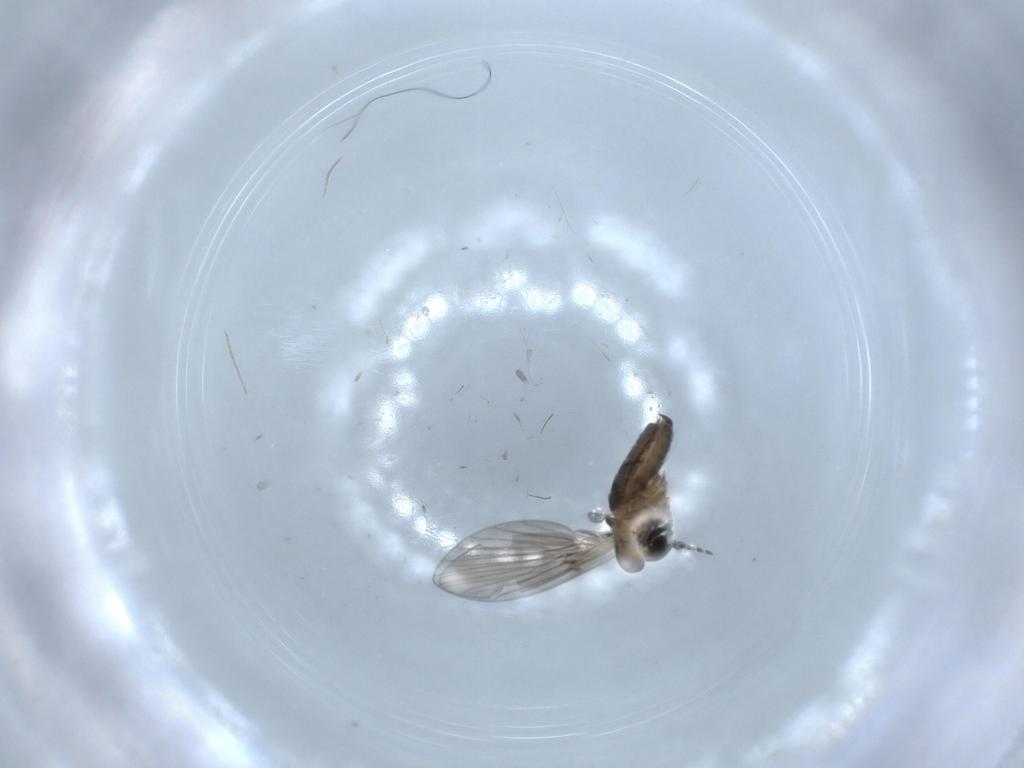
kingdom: Animalia
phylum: Arthropoda
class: Insecta
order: Diptera
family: Psychodidae
